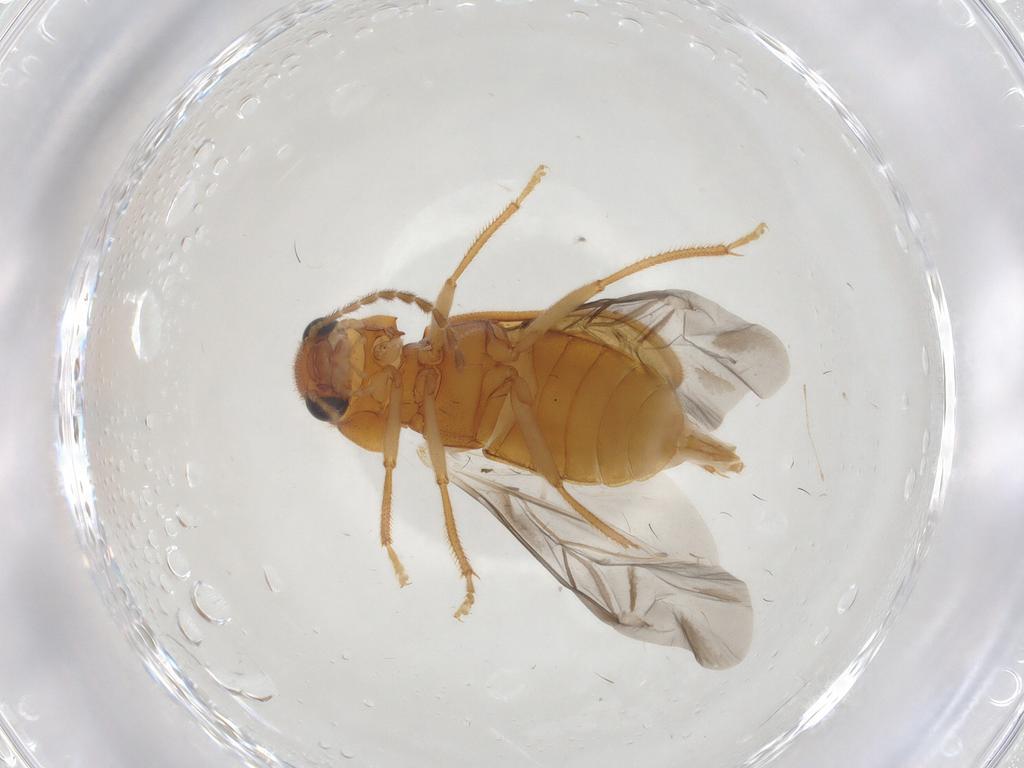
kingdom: Animalia
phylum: Arthropoda
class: Insecta
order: Coleoptera
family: Ptilodactylidae
